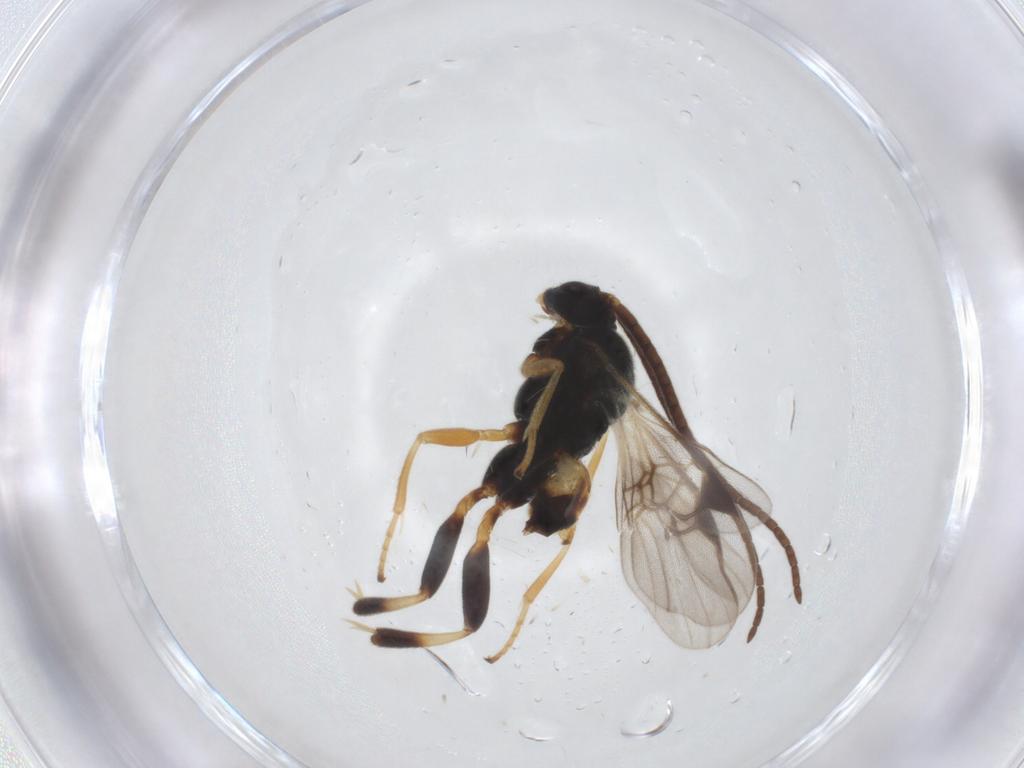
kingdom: Animalia
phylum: Arthropoda
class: Insecta
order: Hymenoptera
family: Braconidae
